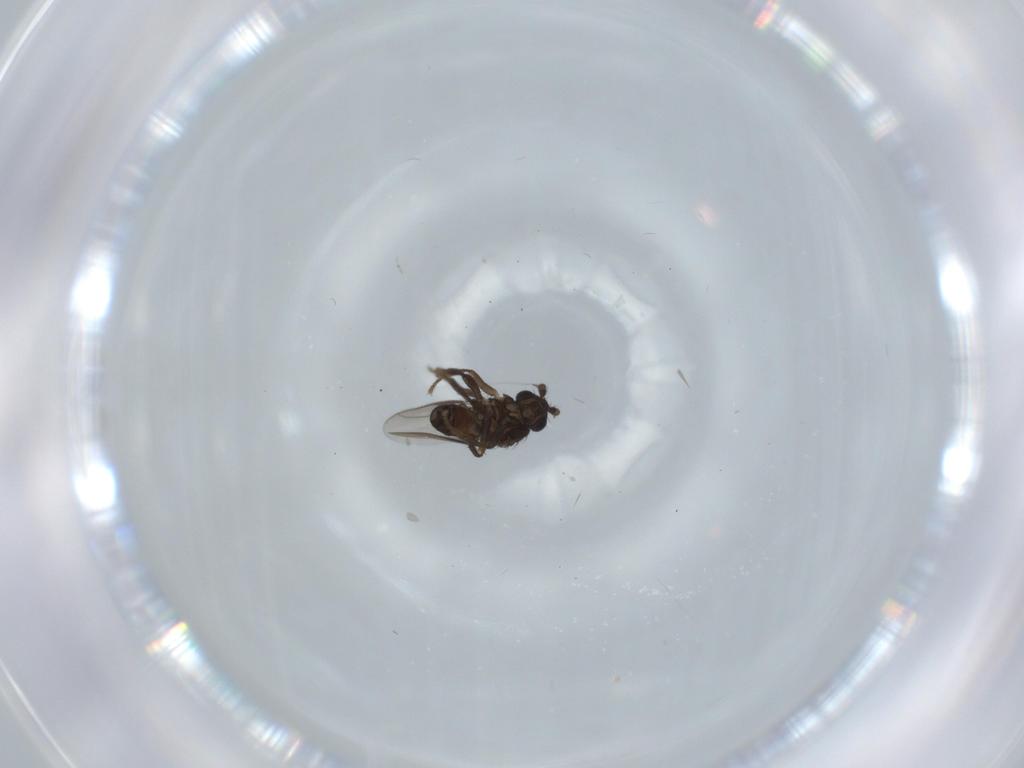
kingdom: Animalia
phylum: Arthropoda
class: Insecta
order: Diptera
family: Sphaeroceridae
